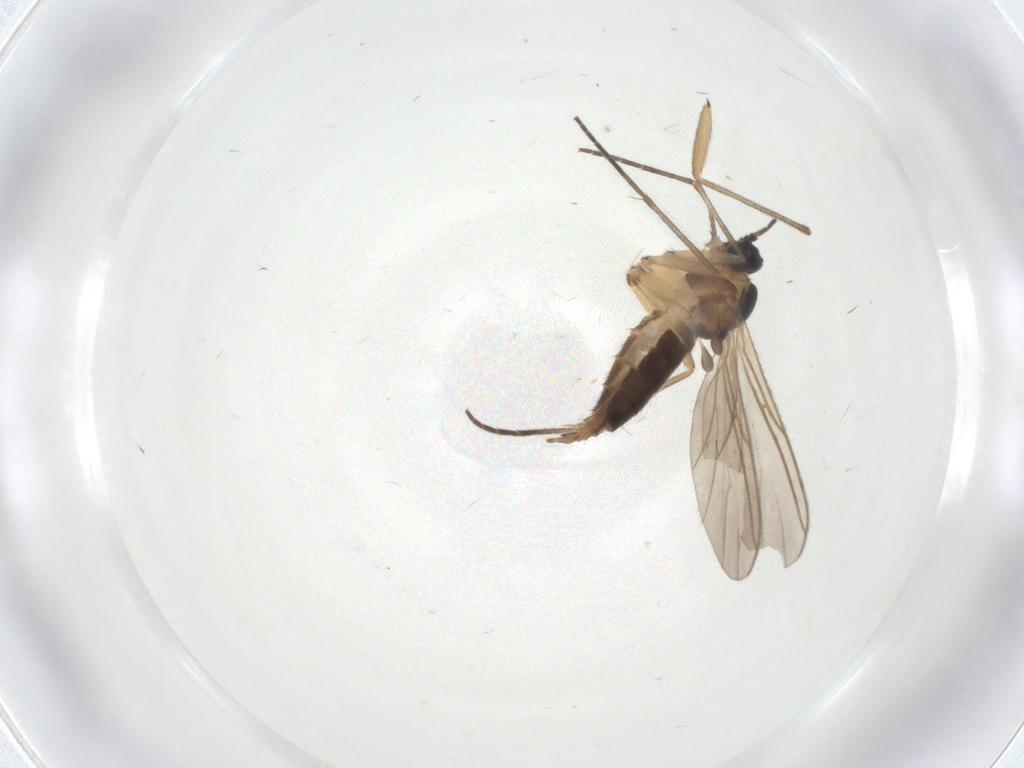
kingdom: Animalia
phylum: Arthropoda
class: Insecta
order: Diptera
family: Sciaridae
